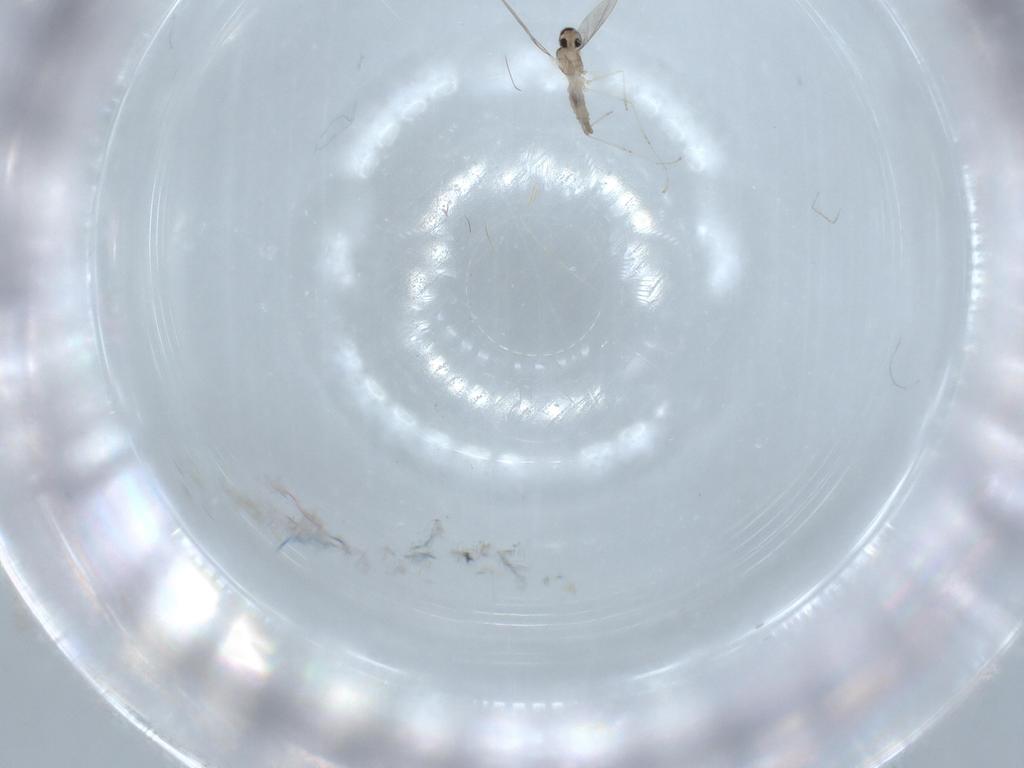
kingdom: Animalia
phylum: Arthropoda
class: Insecta
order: Diptera
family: Cecidomyiidae
